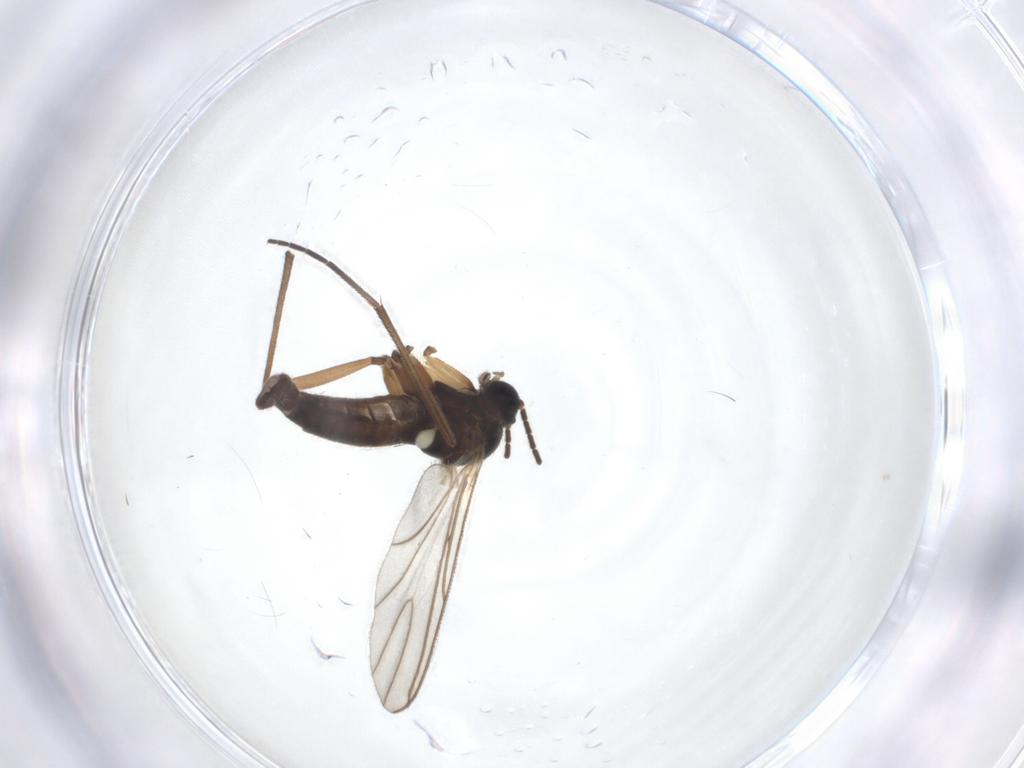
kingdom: Animalia
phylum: Arthropoda
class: Insecta
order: Diptera
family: Sciaridae
